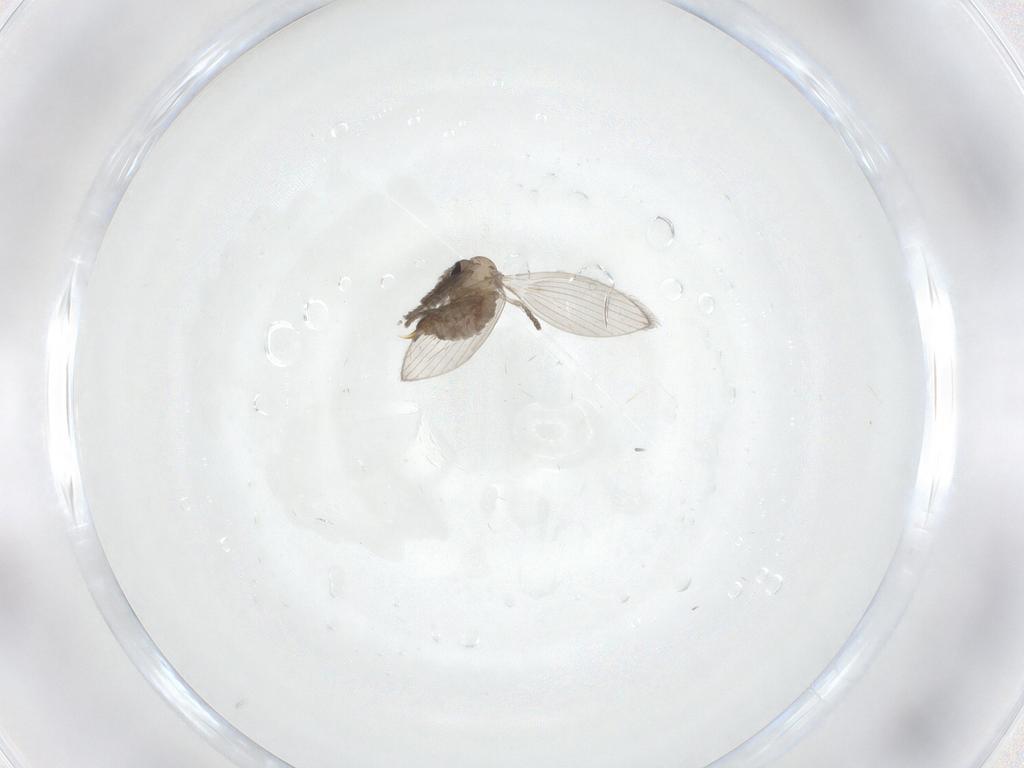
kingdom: Animalia
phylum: Arthropoda
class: Insecta
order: Diptera
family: Psychodidae
